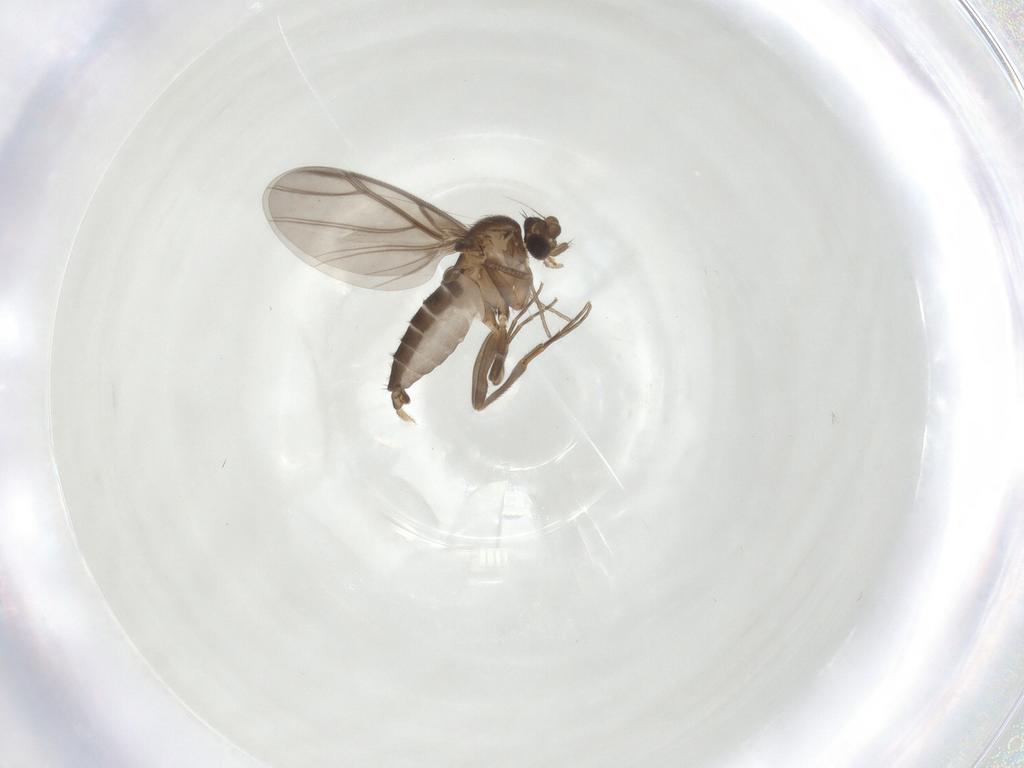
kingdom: Animalia
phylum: Arthropoda
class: Insecta
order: Diptera
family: Phoridae
